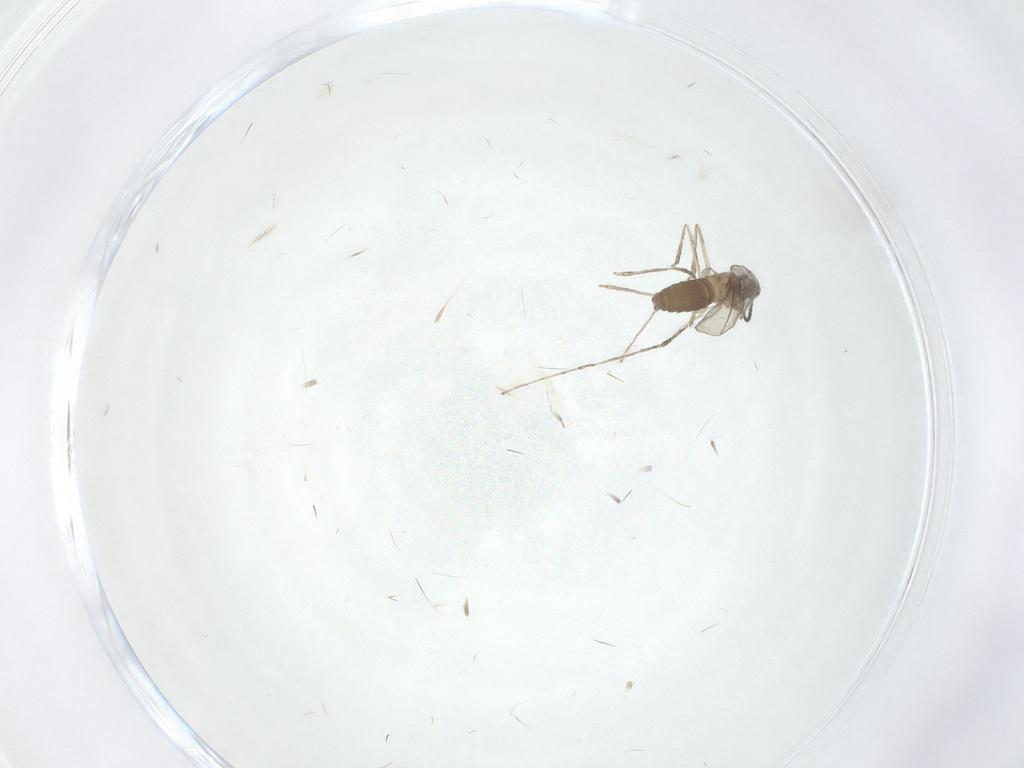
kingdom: Animalia
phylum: Arthropoda
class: Insecta
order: Diptera
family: Cecidomyiidae
